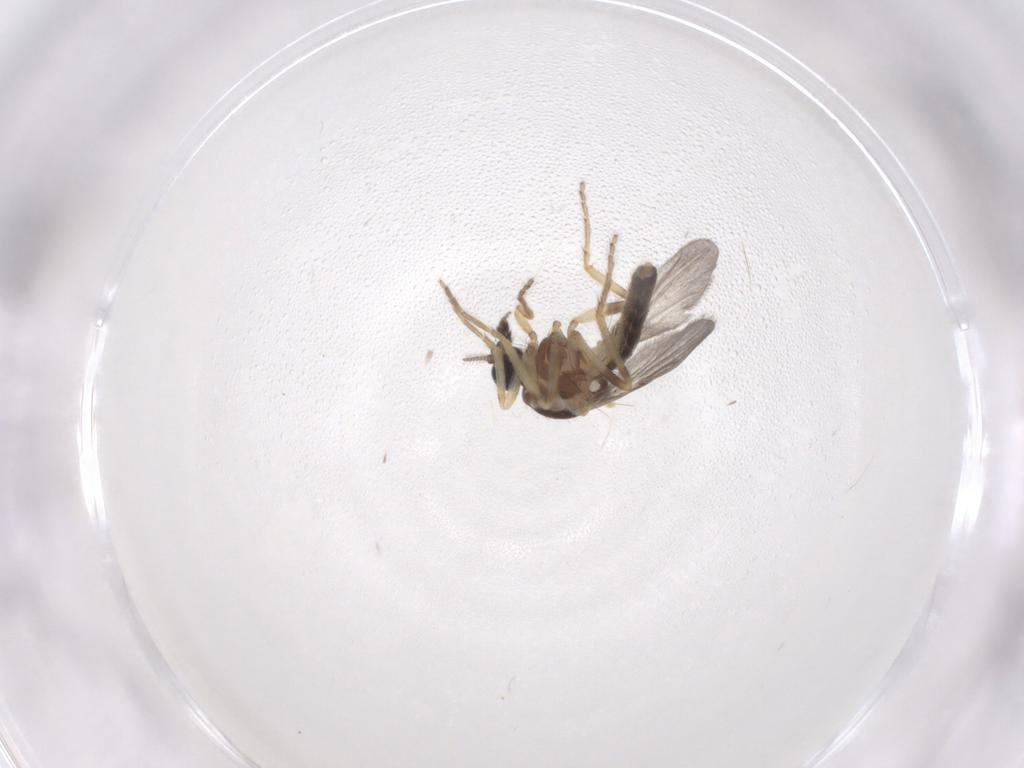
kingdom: Animalia
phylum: Arthropoda
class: Insecta
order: Diptera
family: Ceratopogonidae
